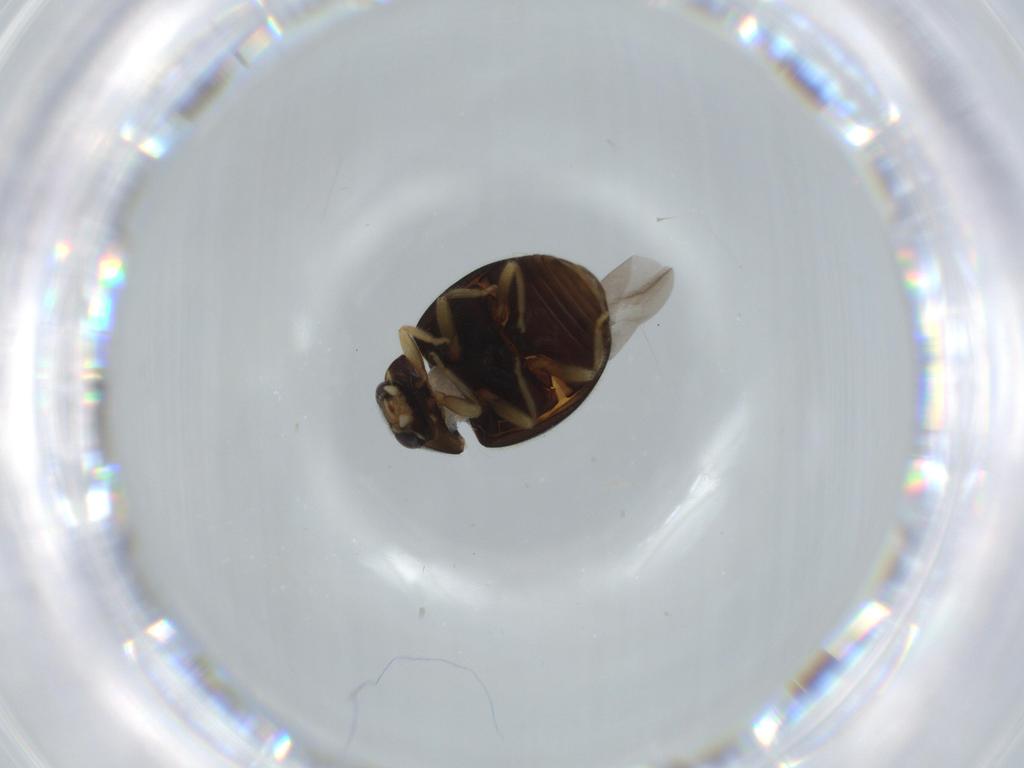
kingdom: Animalia
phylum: Arthropoda
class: Insecta
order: Coleoptera
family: Coccinellidae
